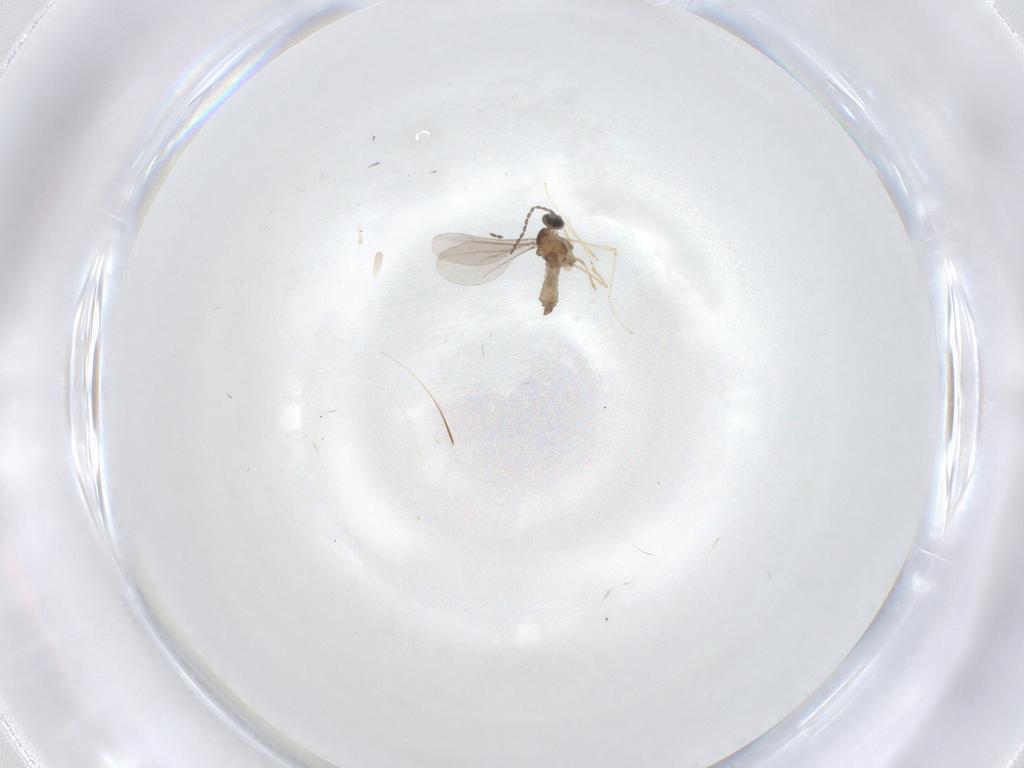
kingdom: Animalia
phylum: Arthropoda
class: Insecta
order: Diptera
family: Cecidomyiidae
